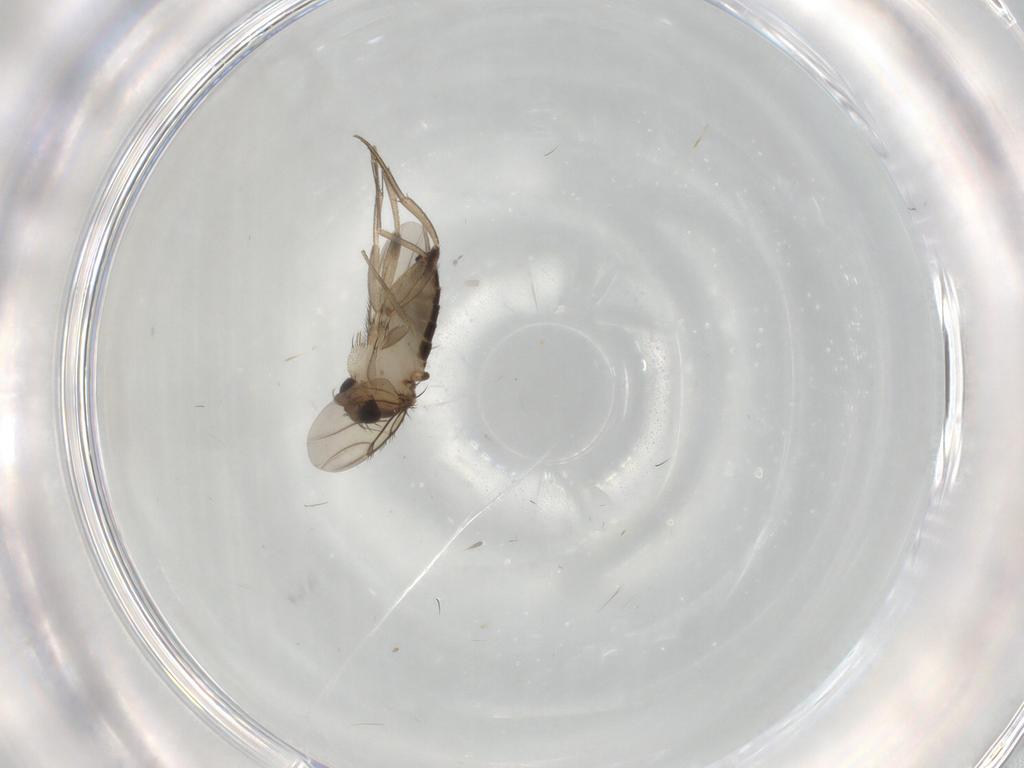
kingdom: Animalia
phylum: Arthropoda
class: Insecta
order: Diptera
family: Phoridae
